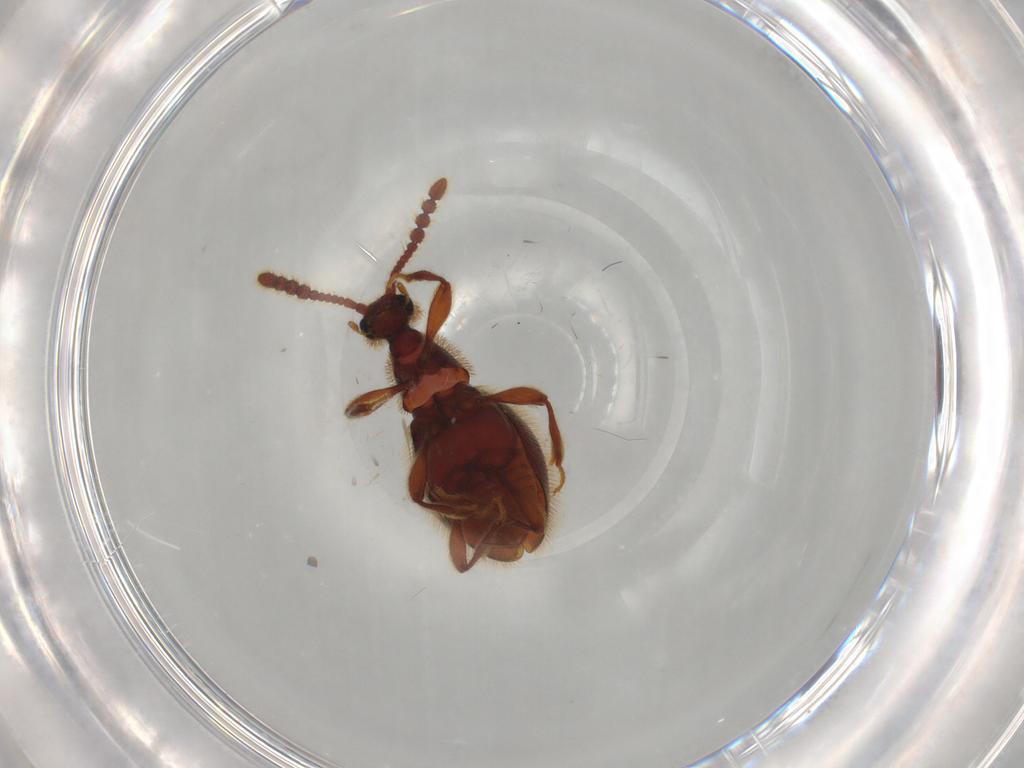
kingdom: Animalia
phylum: Arthropoda
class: Insecta
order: Coleoptera
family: Staphylinidae
